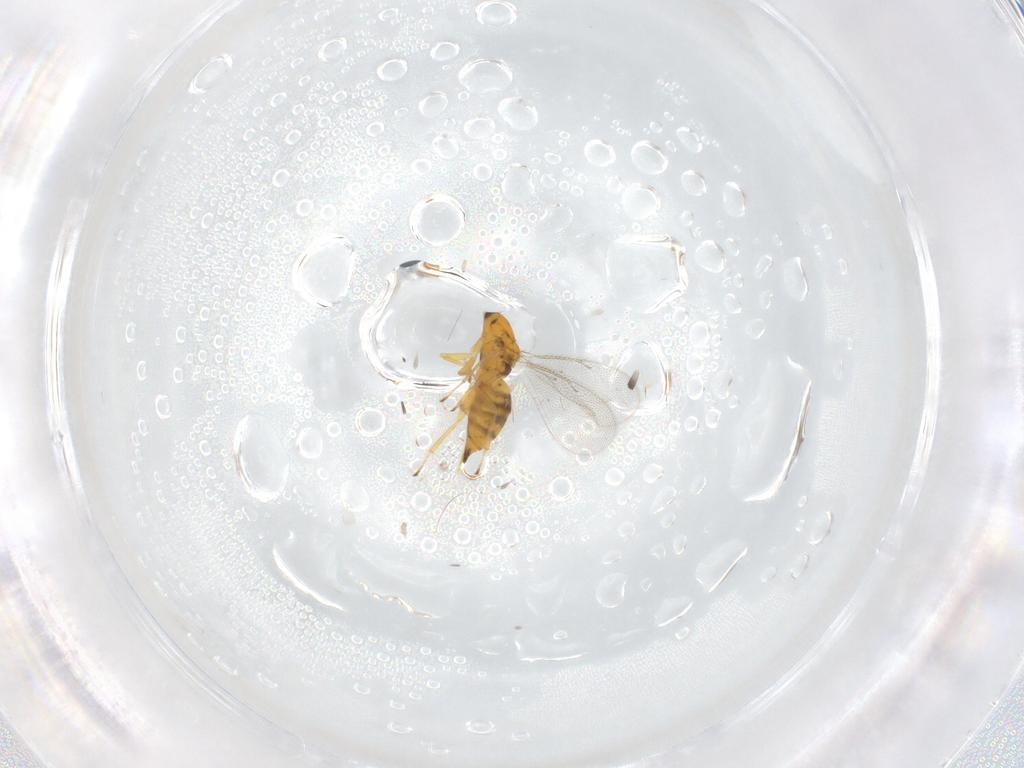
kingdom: Animalia
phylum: Arthropoda
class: Insecta
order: Hymenoptera
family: Eulophidae
